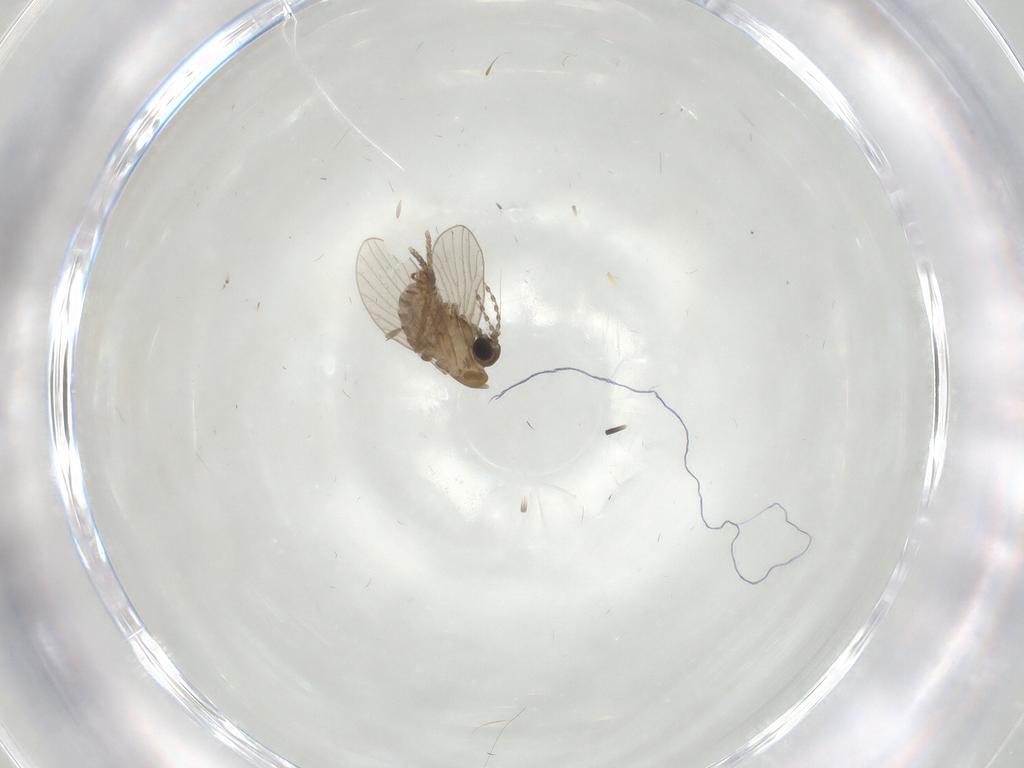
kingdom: Animalia
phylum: Arthropoda
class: Insecta
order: Diptera
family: Psychodidae
